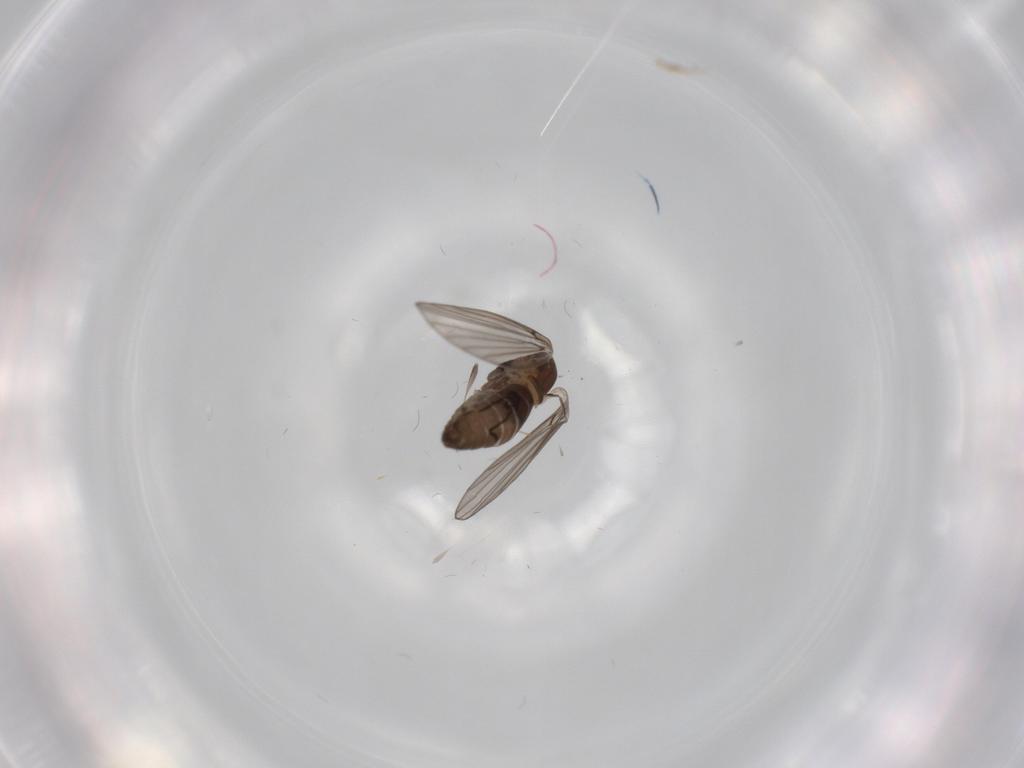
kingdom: Animalia
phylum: Arthropoda
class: Insecta
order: Diptera
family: Psychodidae
